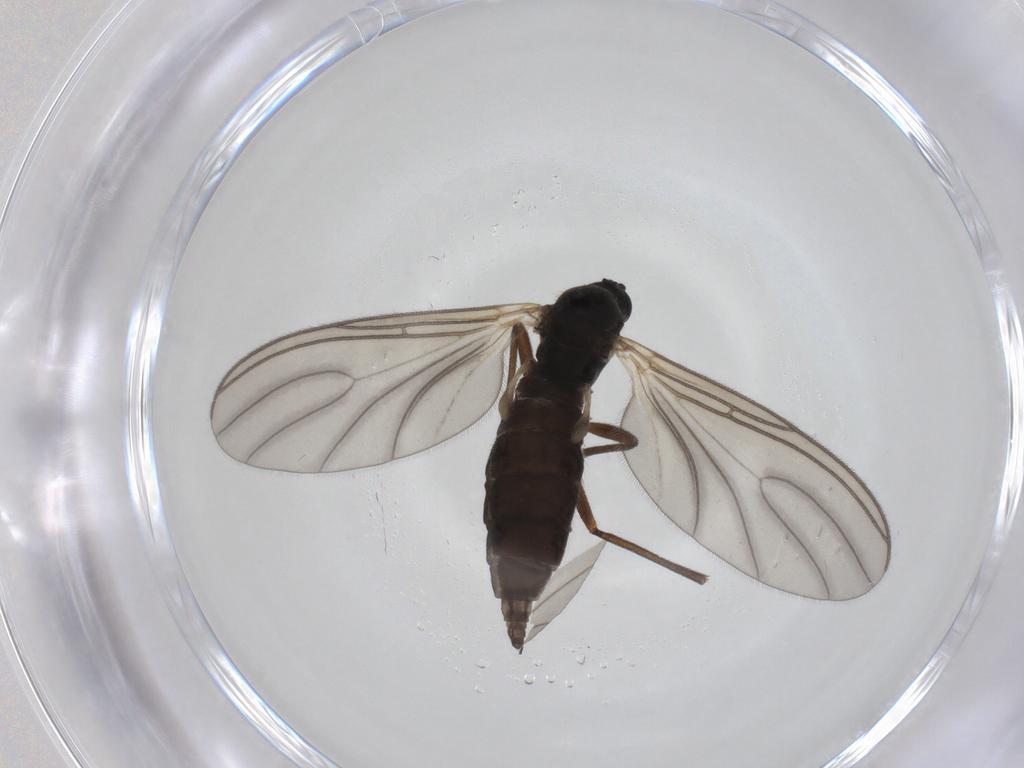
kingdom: Animalia
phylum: Arthropoda
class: Insecta
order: Diptera
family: Sciaridae
